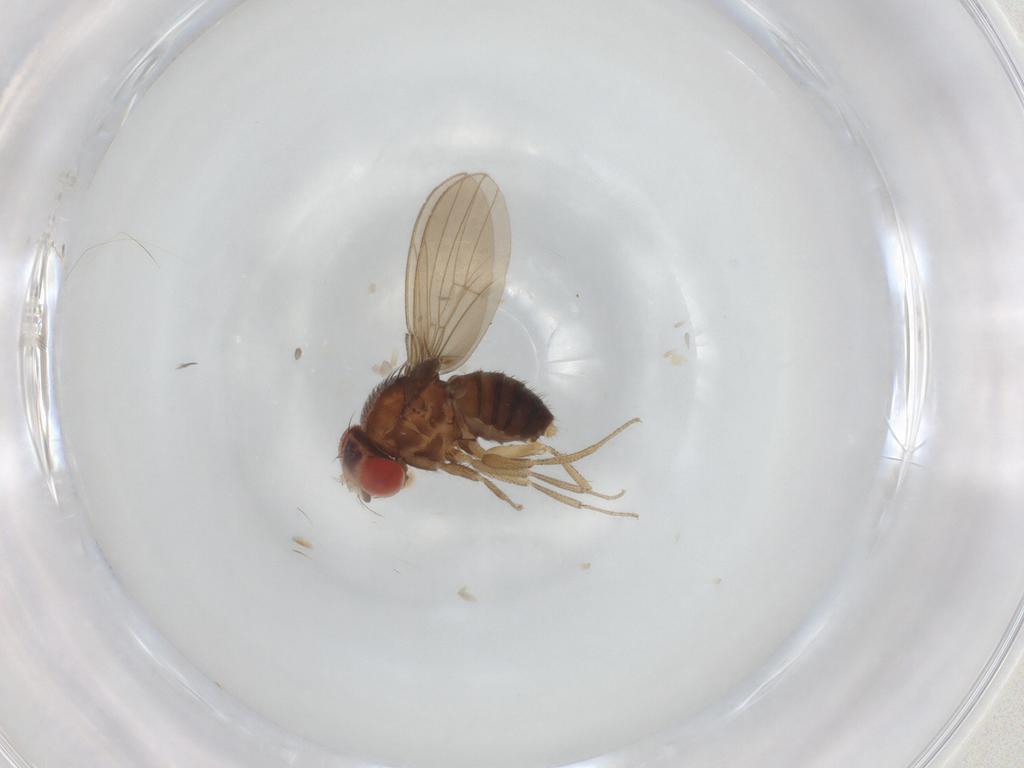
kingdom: Animalia
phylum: Arthropoda
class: Insecta
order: Diptera
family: Drosophilidae
